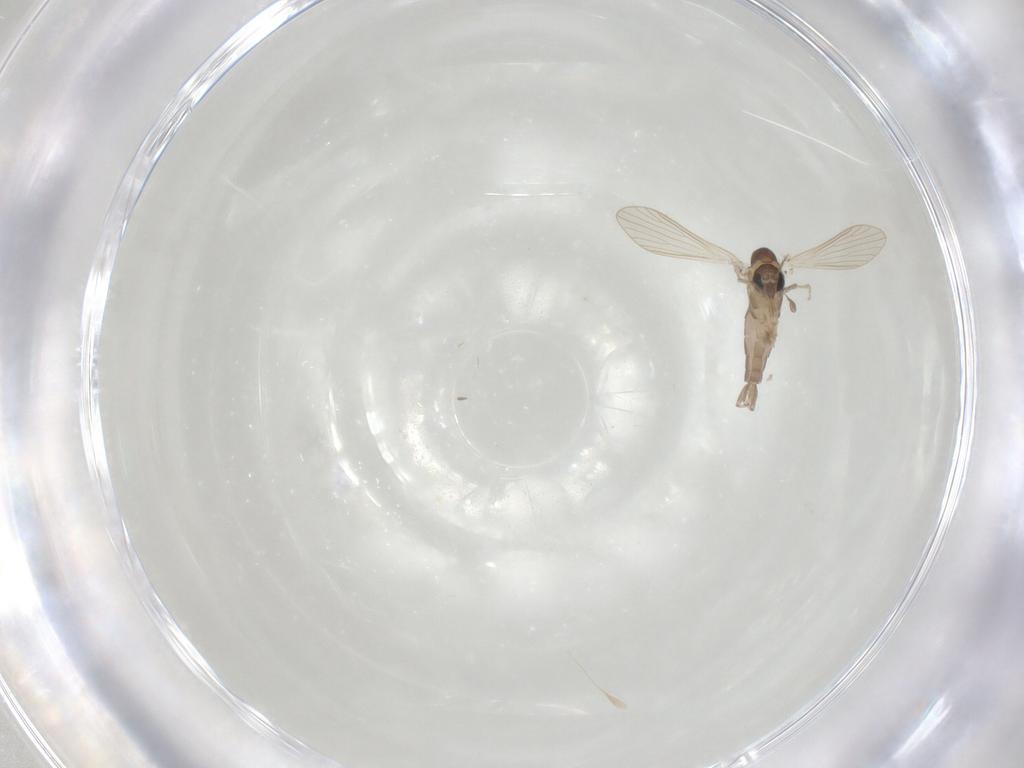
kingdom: Animalia
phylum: Arthropoda
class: Insecta
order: Diptera
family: Psychodidae
